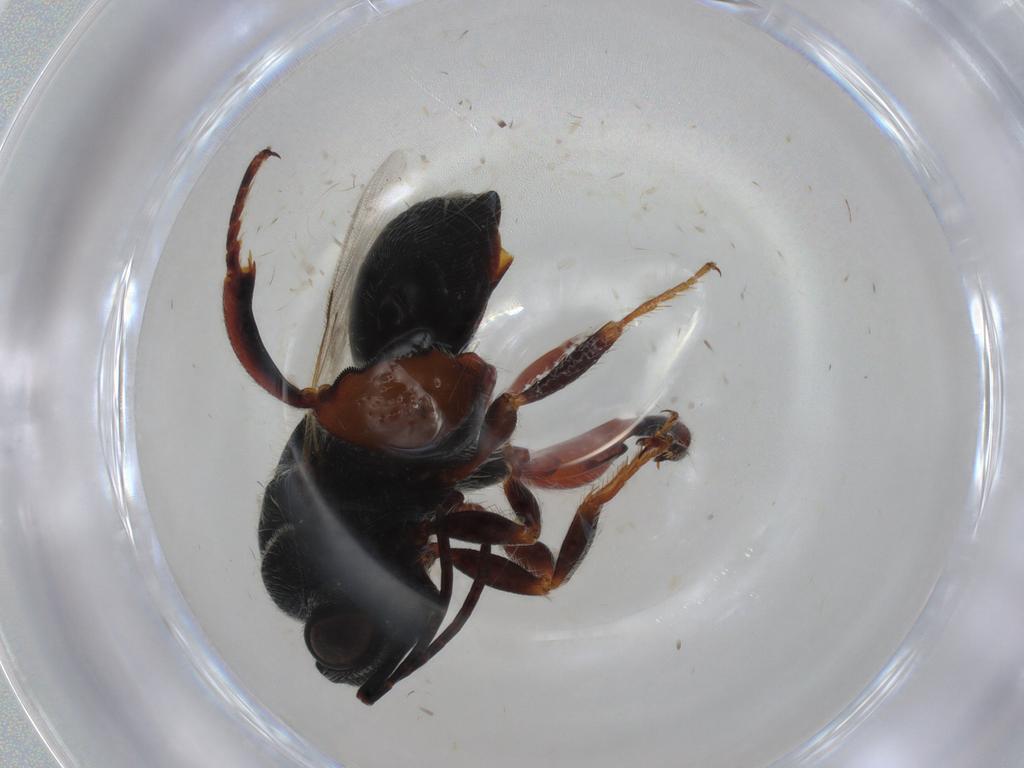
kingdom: Animalia
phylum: Arthropoda
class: Insecta
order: Hymenoptera
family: Chalcididae
